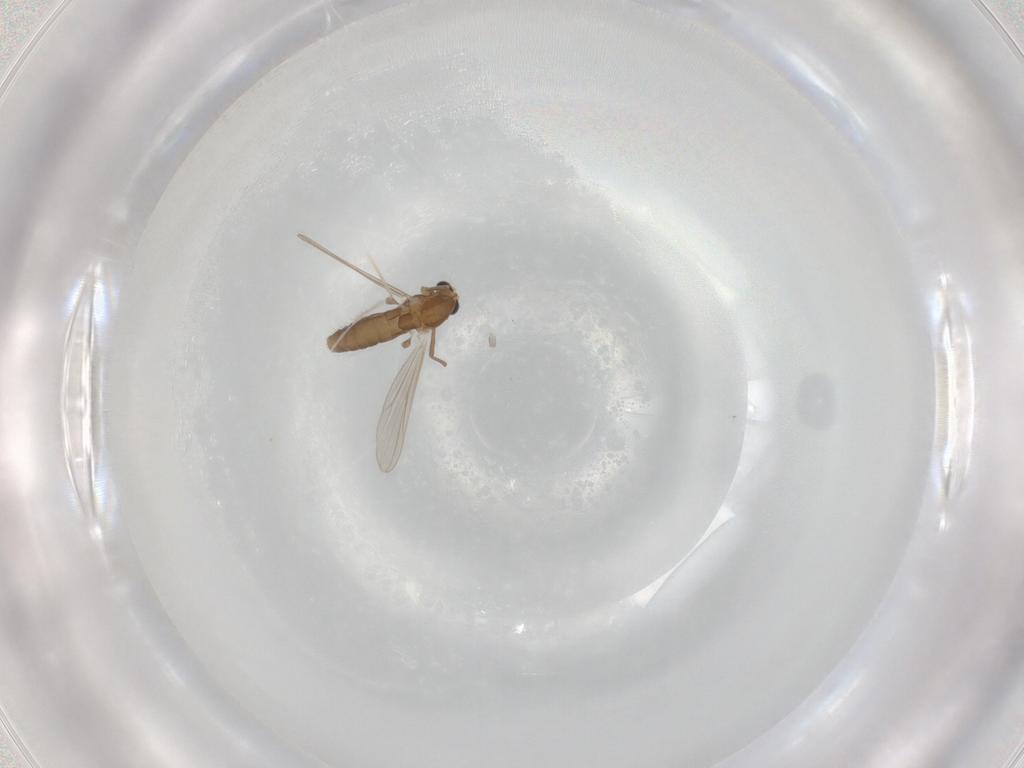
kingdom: Animalia
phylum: Arthropoda
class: Insecta
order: Diptera
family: Chironomidae
